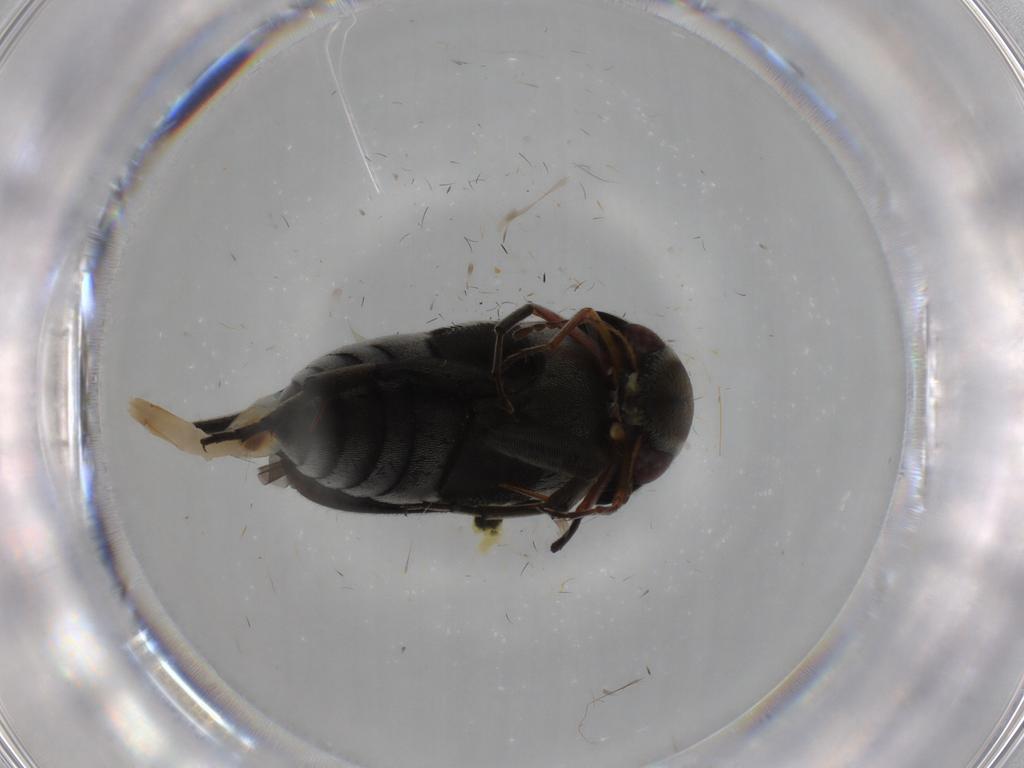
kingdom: Animalia
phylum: Arthropoda
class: Insecta
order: Coleoptera
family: Mordellidae
